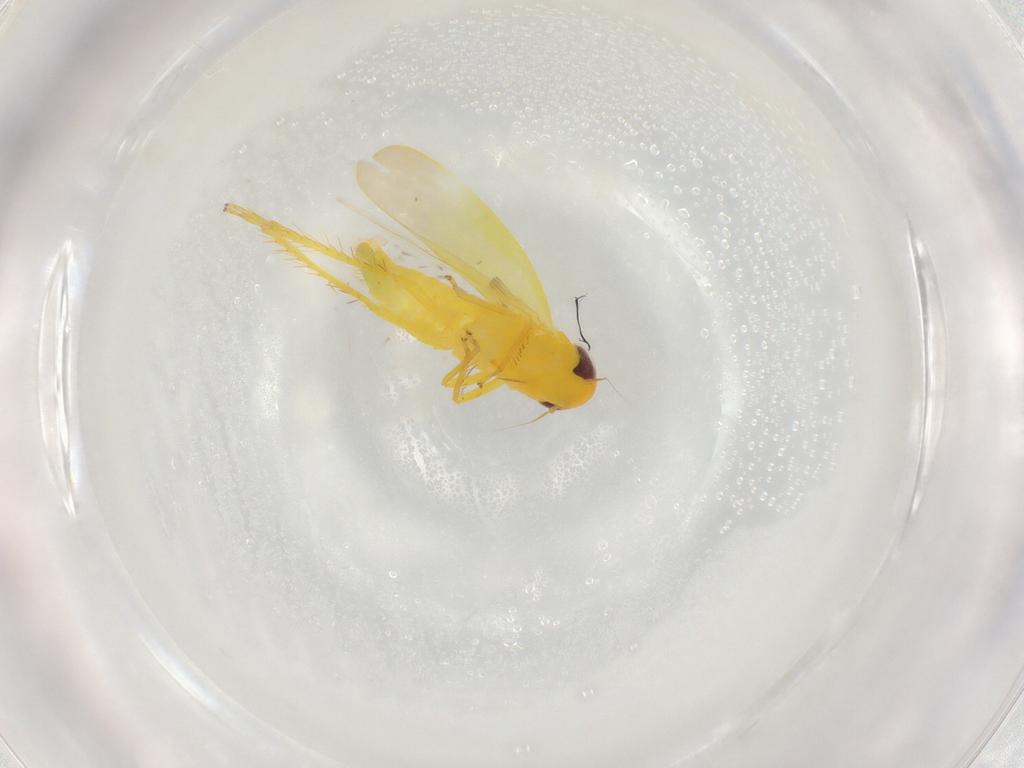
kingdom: Animalia
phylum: Arthropoda
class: Insecta
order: Hemiptera
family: Cicadellidae
